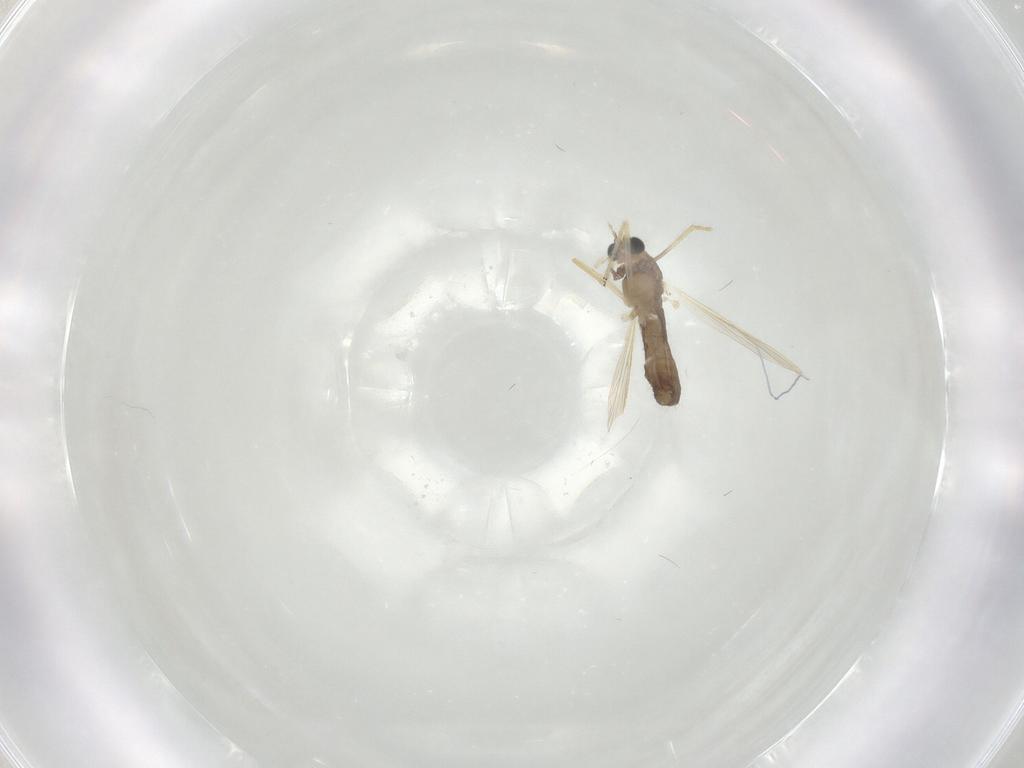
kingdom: Animalia
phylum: Arthropoda
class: Insecta
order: Diptera
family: Chironomidae
